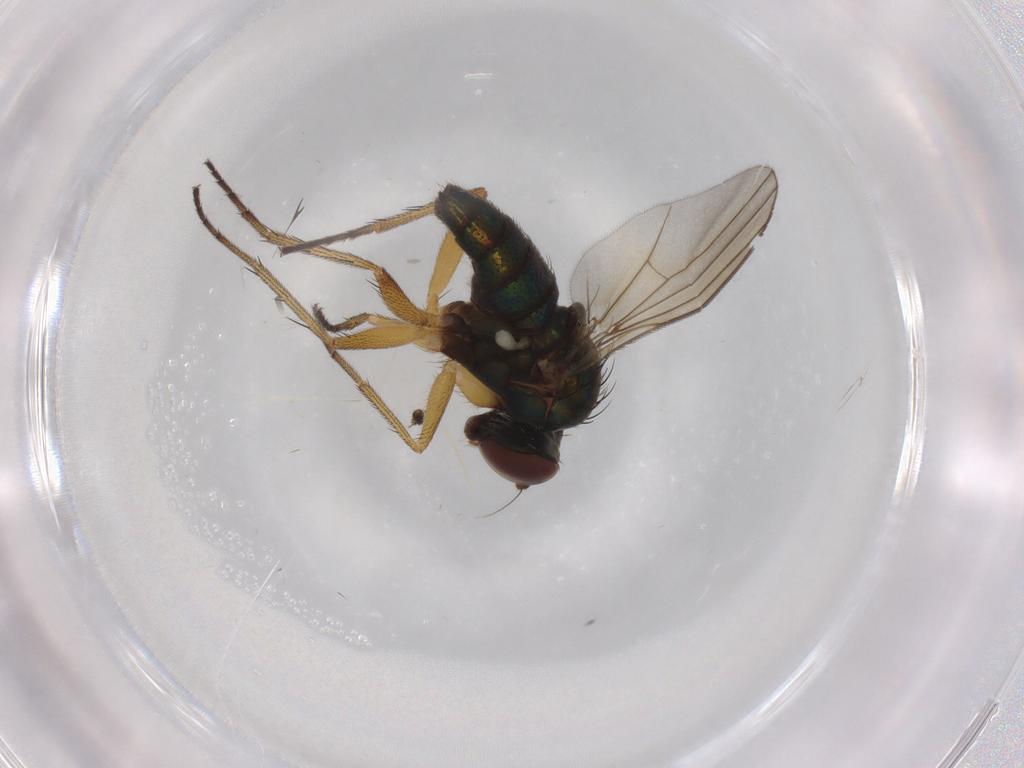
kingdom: Animalia
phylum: Arthropoda
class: Insecta
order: Diptera
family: Dolichopodidae
